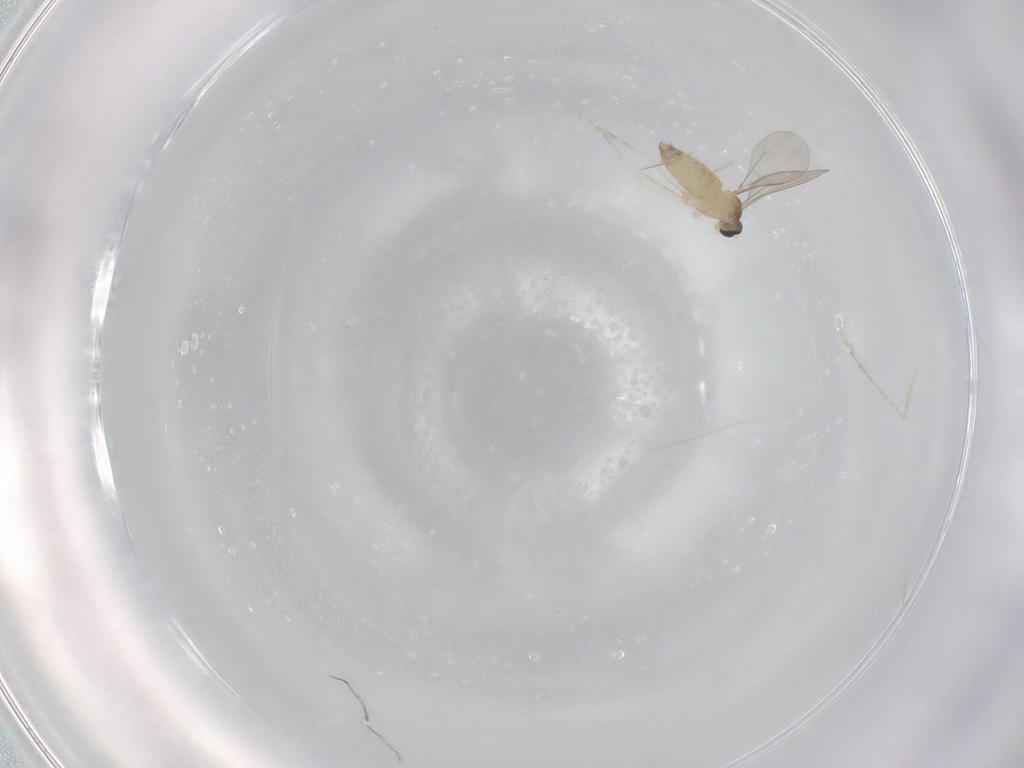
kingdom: Animalia
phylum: Arthropoda
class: Insecta
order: Diptera
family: Cecidomyiidae
